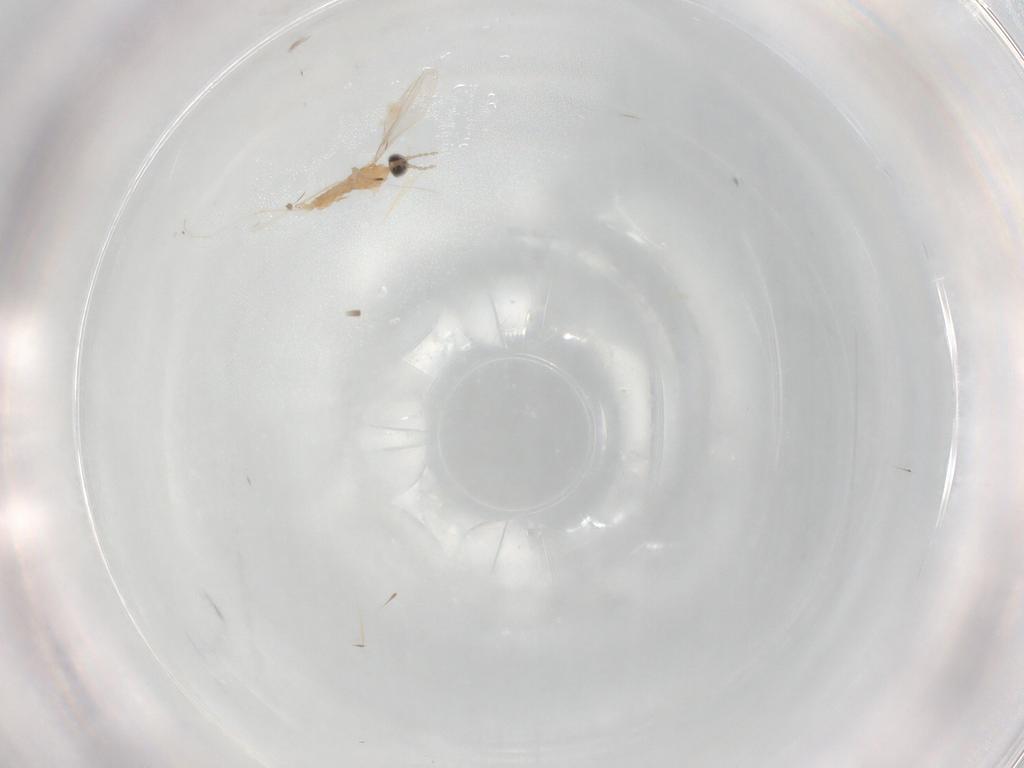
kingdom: Animalia
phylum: Arthropoda
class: Insecta
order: Diptera
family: Cecidomyiidae
